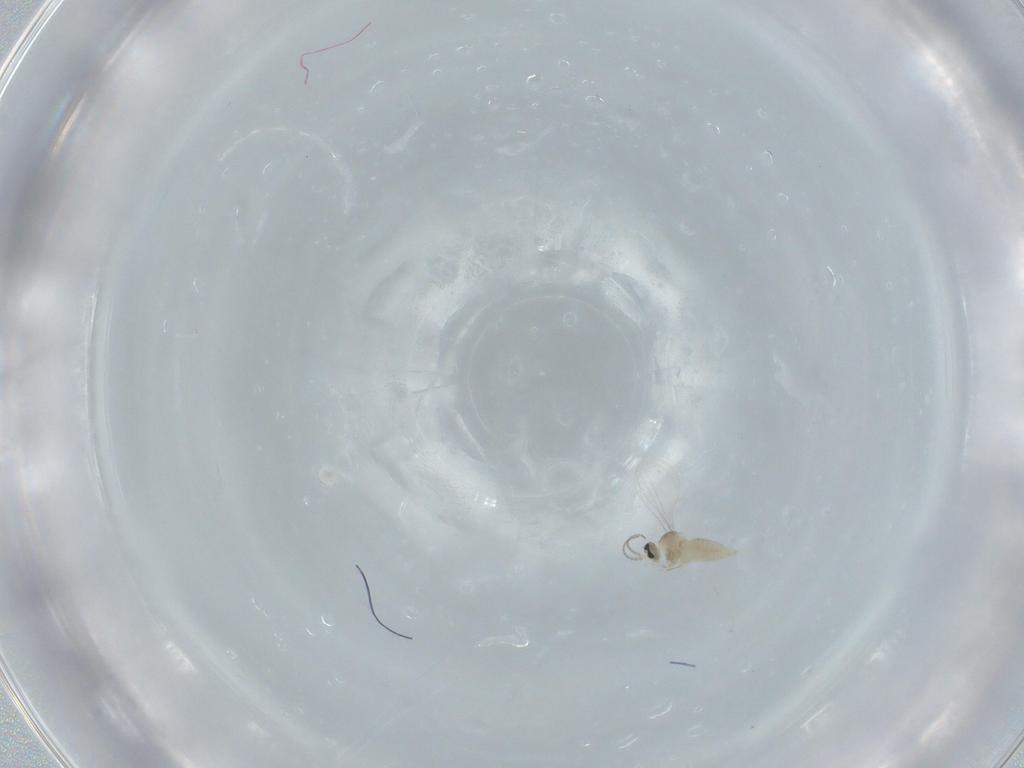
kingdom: Animalia
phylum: Arthropoda
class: Insecta
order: Diptera
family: Cecidomyiidae
